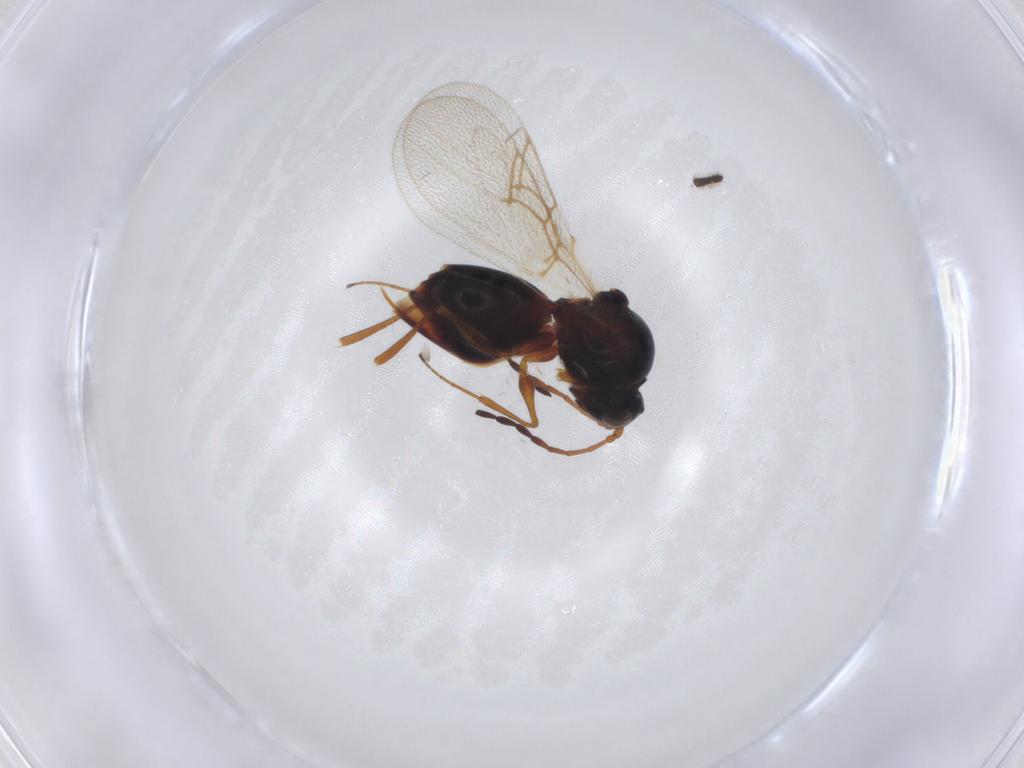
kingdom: Animalia
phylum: Arthropoda
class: Insecta
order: Hymenoptera
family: Figitidae
